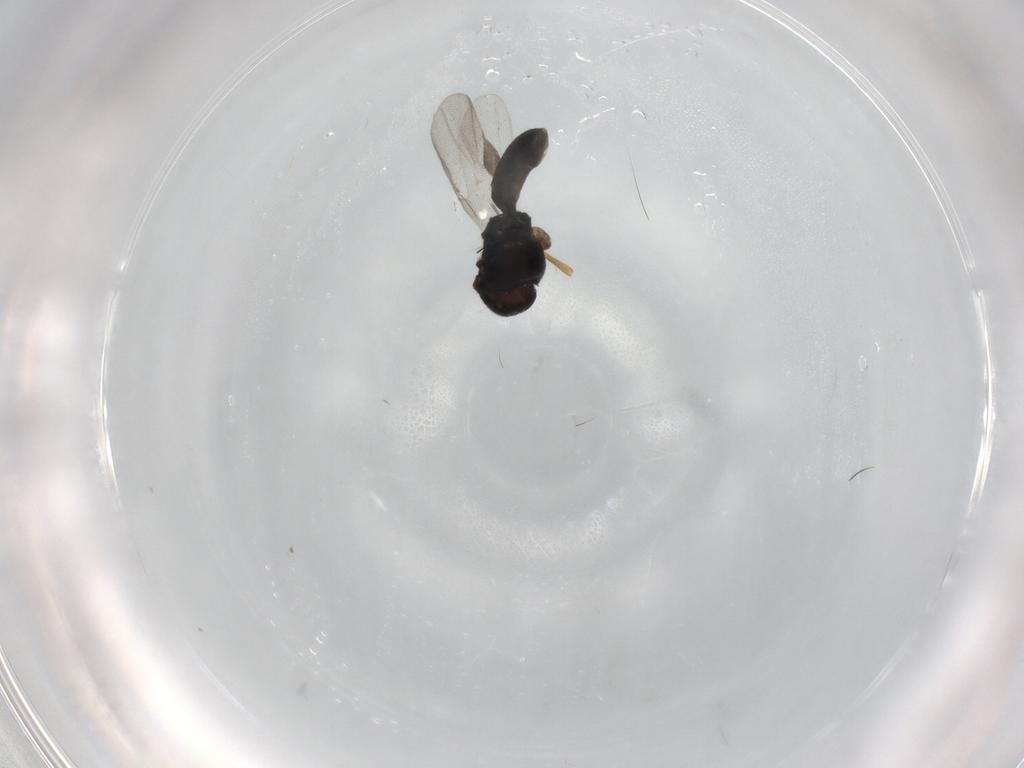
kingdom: Animalia
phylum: Arthropoda
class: Insecta
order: Hymenoptera
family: Braconidae
